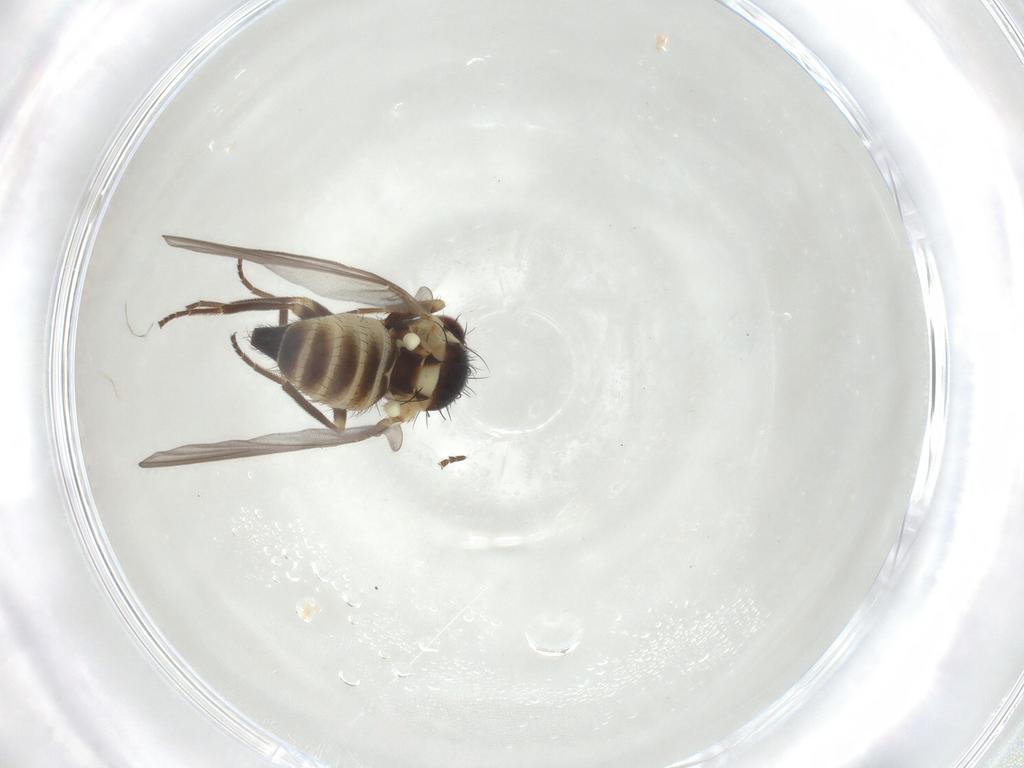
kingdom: Animalia
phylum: Arthropoda
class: Insecta
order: Diptera
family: Agromyzidae
